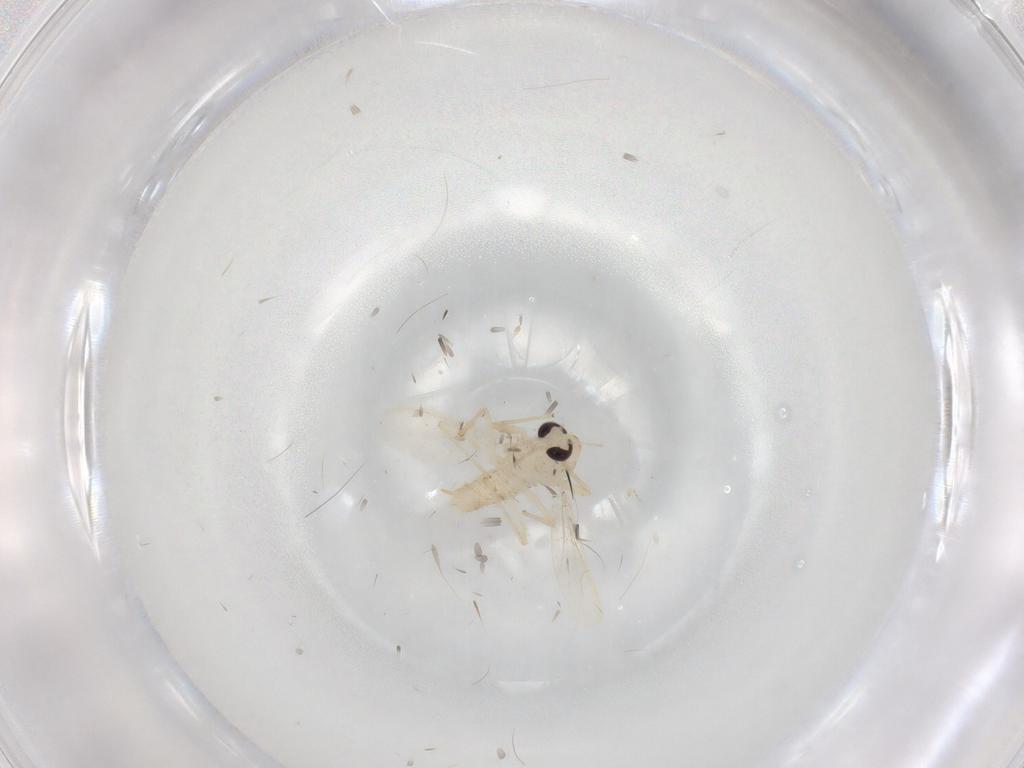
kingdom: Animalia
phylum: Arthropoda
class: Insecta
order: Diptera
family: Chironomidae
